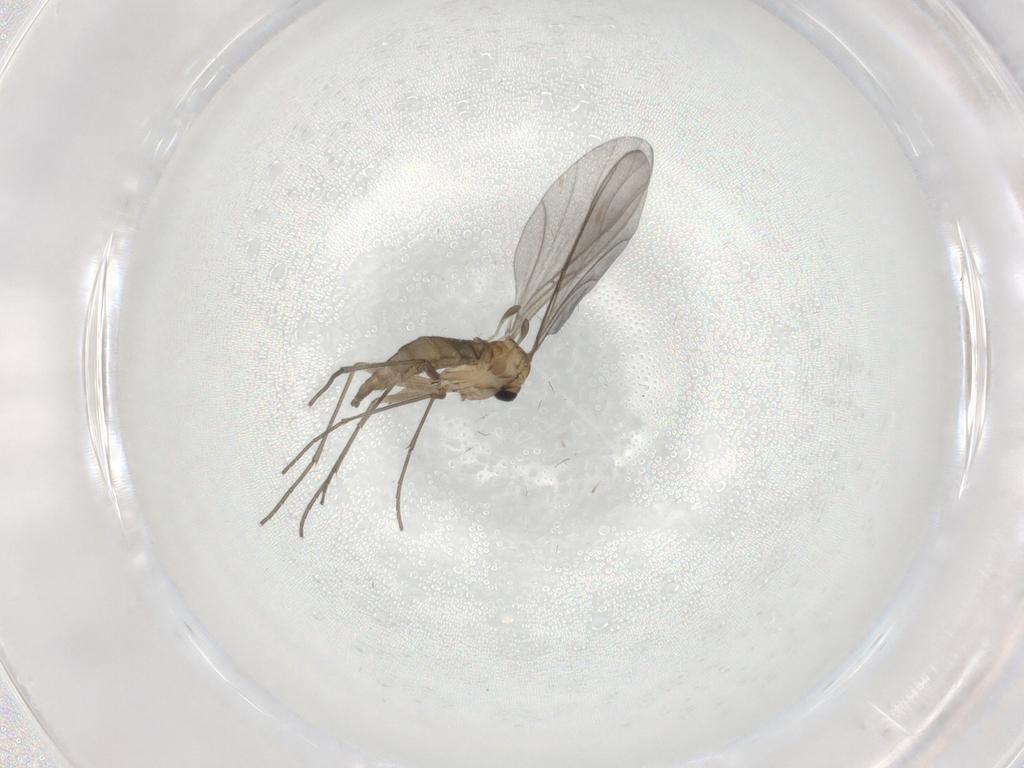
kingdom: Animalia
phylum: Arthropoda
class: Insecta
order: Diptera
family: Sciaridae
